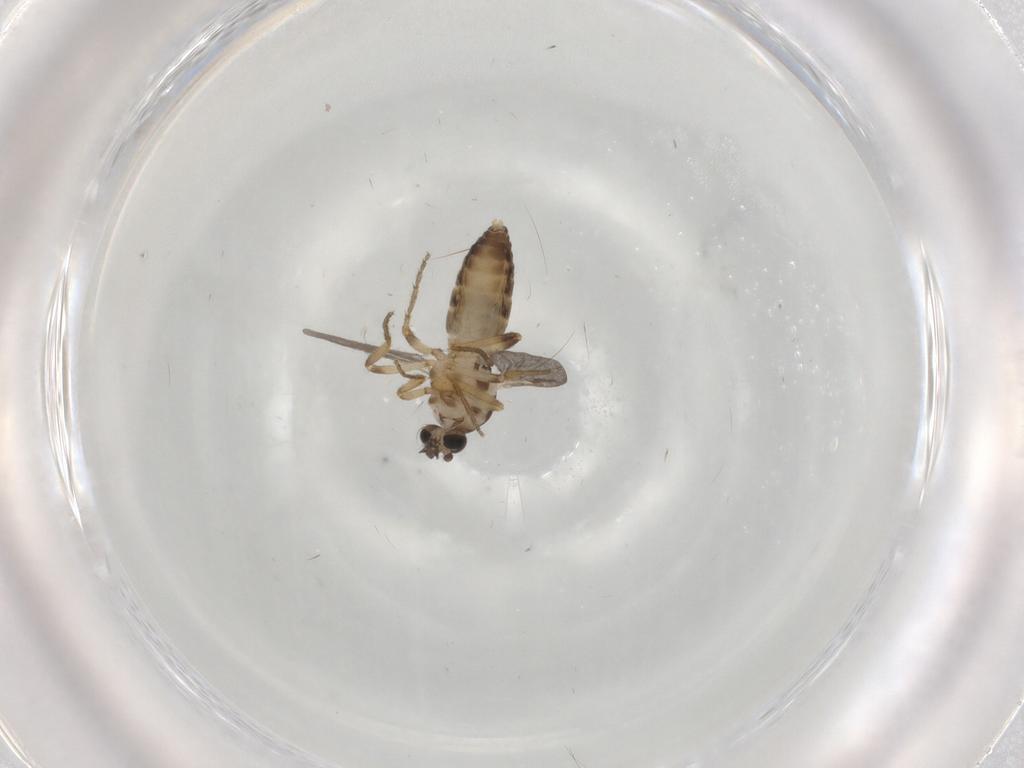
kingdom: Animalia
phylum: Arthropoda
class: Insecta
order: Diptera
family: Cecidomyiidae
